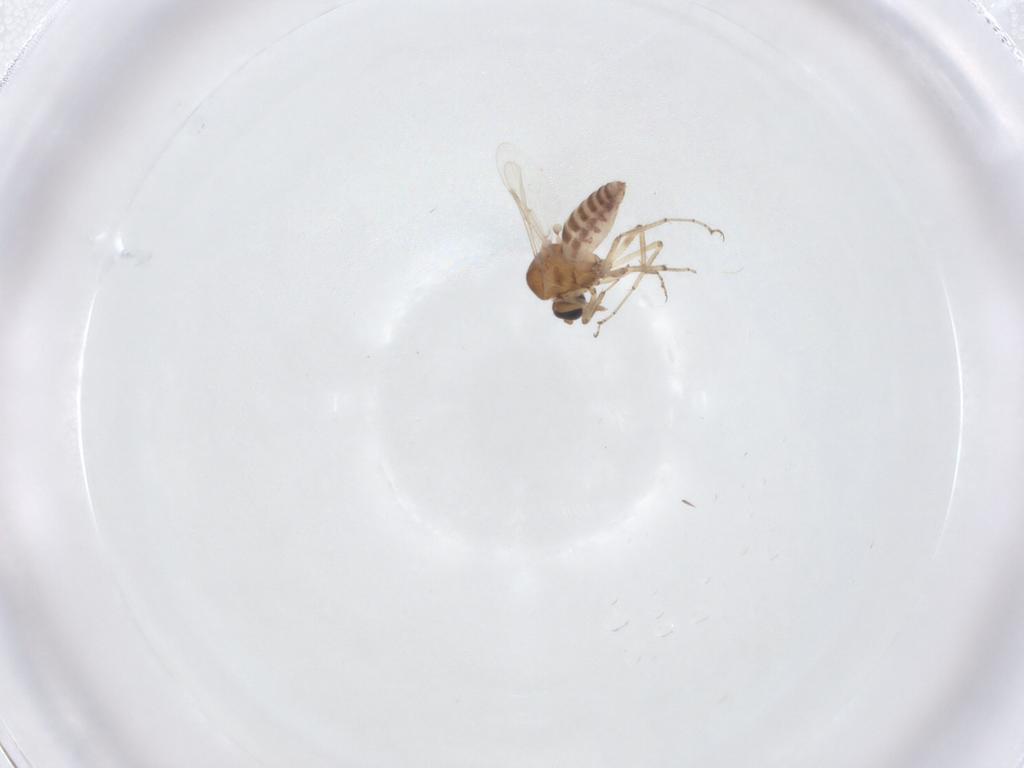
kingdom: Animalia
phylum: Arthropoda
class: Insecta
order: Diptera
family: Ceratopogonidae
